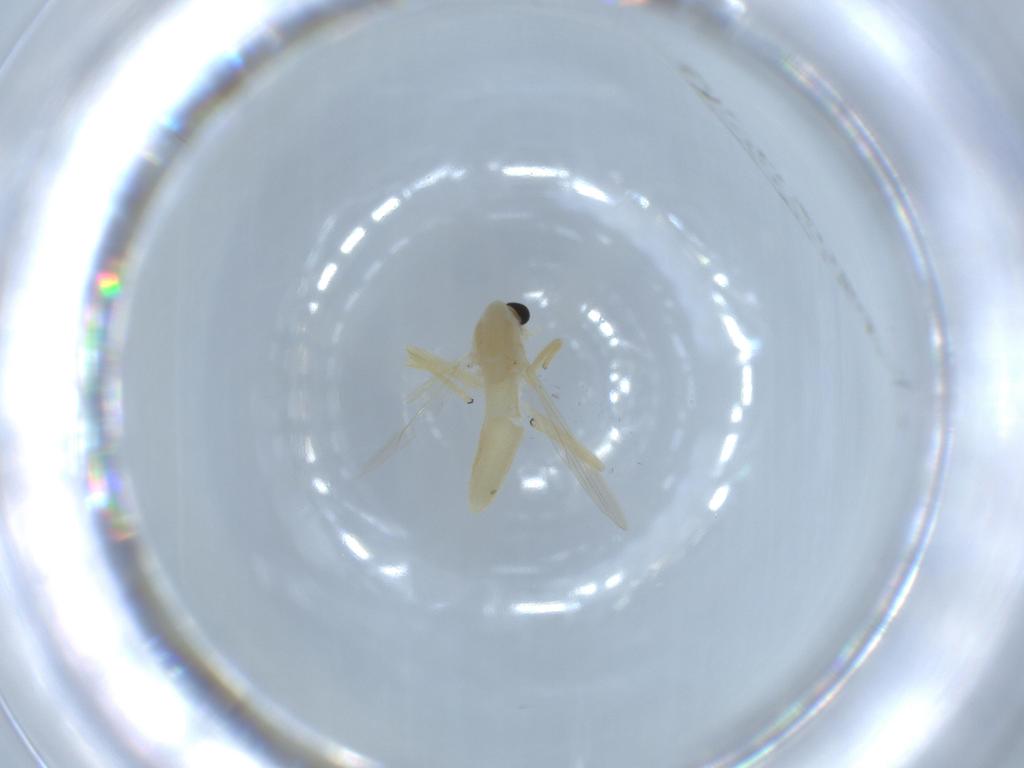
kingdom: Animalia
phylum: Arthropoda
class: Insecta
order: Diptera
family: Chironomidae
